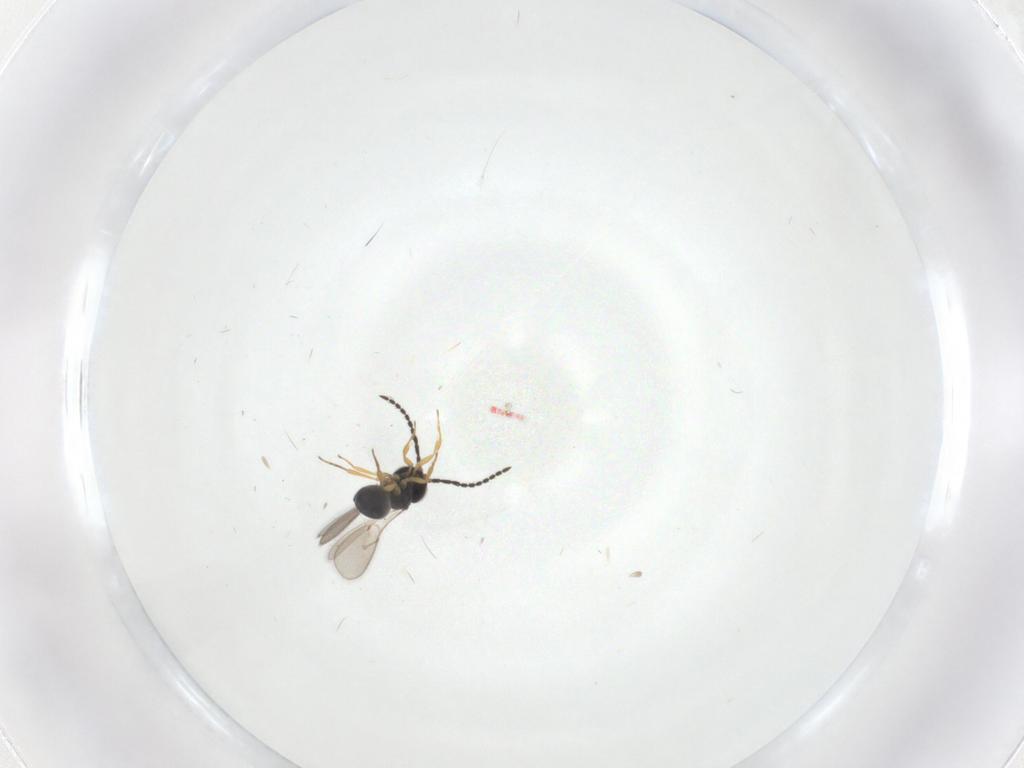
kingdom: Animalia
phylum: Arthropoda
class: Insecta
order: Hymenoptera
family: Scelionidae
